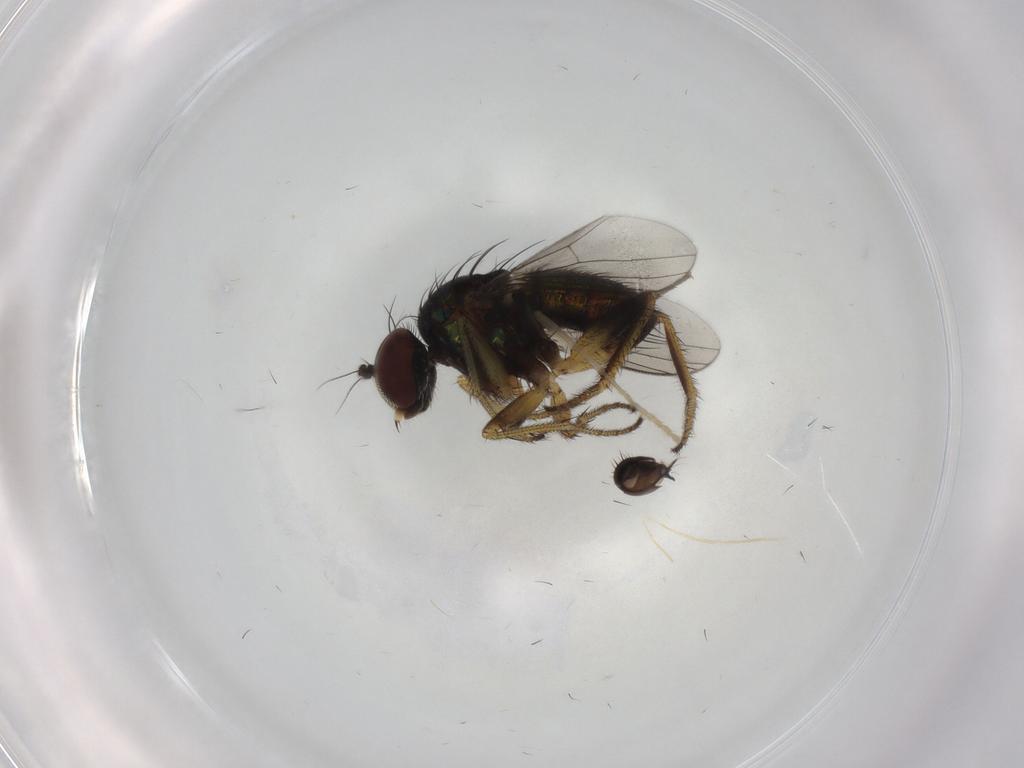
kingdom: Animalia
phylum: Arthropoda
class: Insecta
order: Diptera
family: Dolichopodidae
